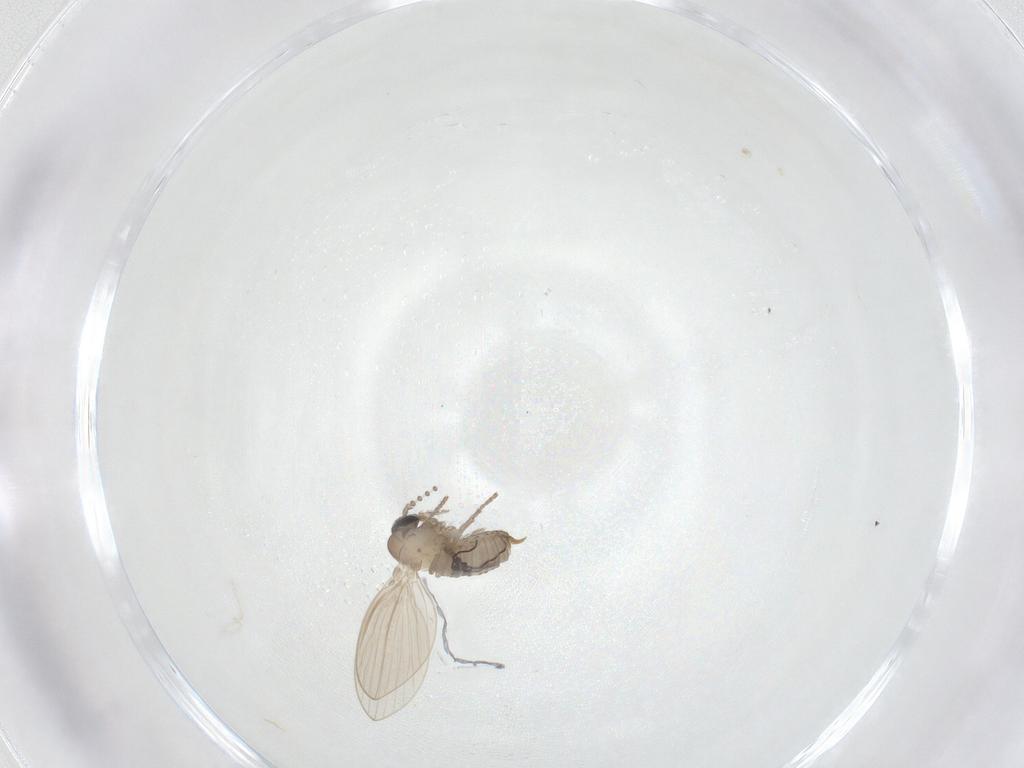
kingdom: Animalia
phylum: Arthropoda
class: Insecta
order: Diptera
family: Psychodidae
